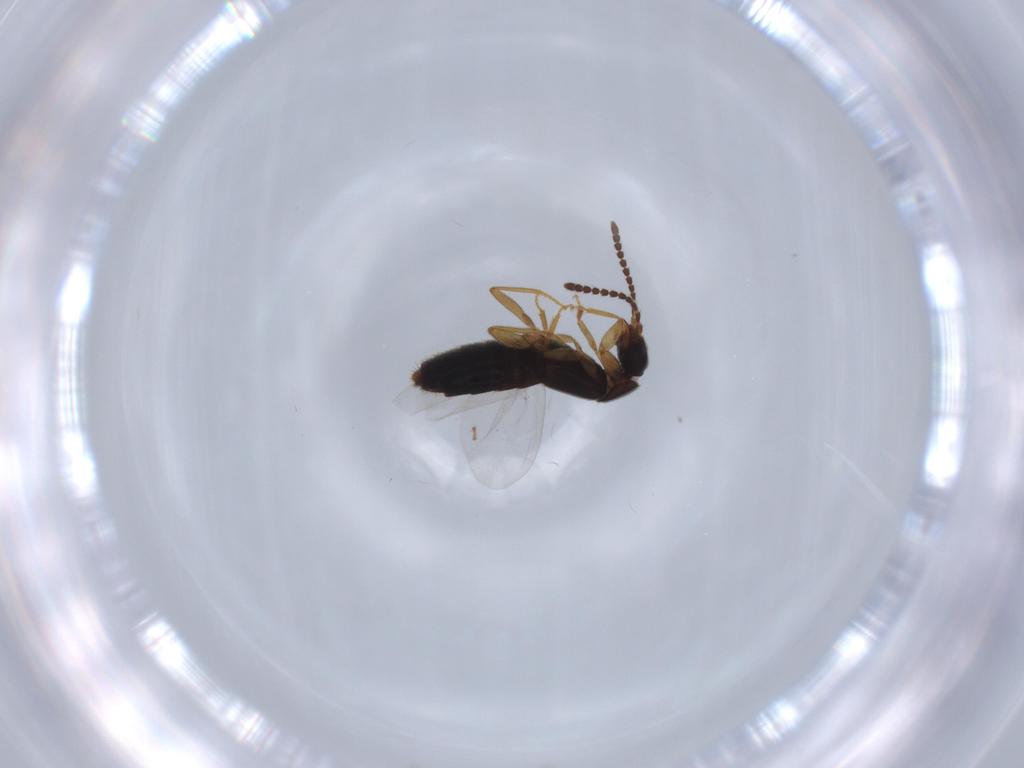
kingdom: Animalia
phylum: Arthropoda
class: Insecta
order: Coleoptera
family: Staphylinidae
